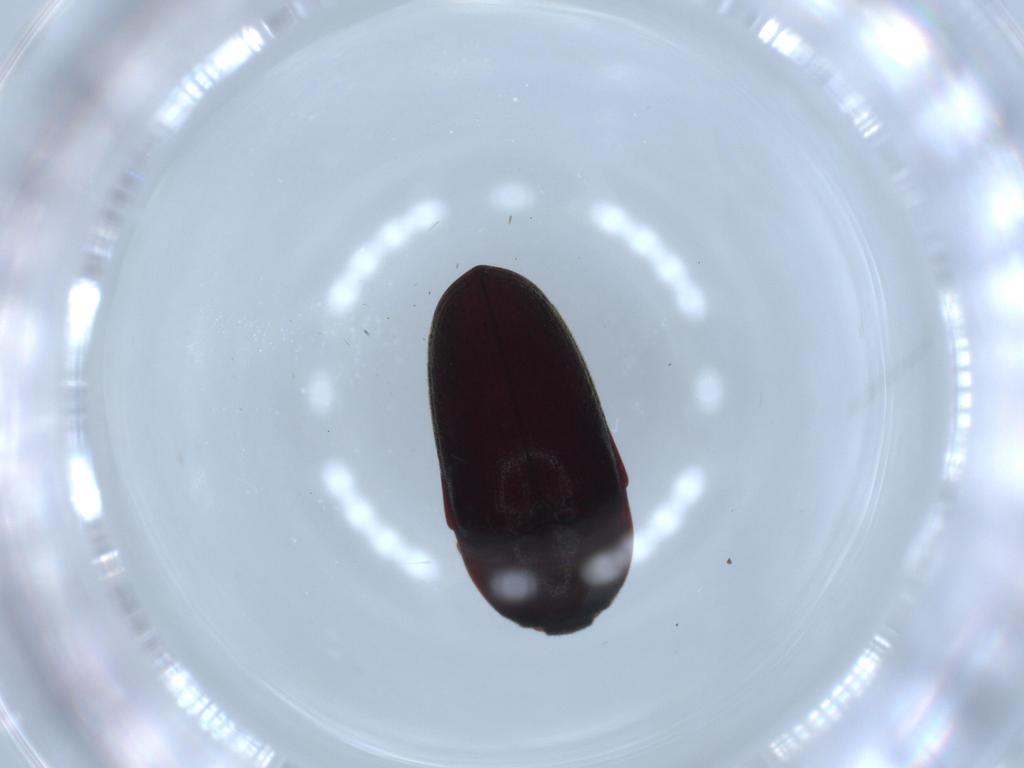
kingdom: Animalia
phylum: Arthropoda
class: Insecta
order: Coleoptera
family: Throscidae
